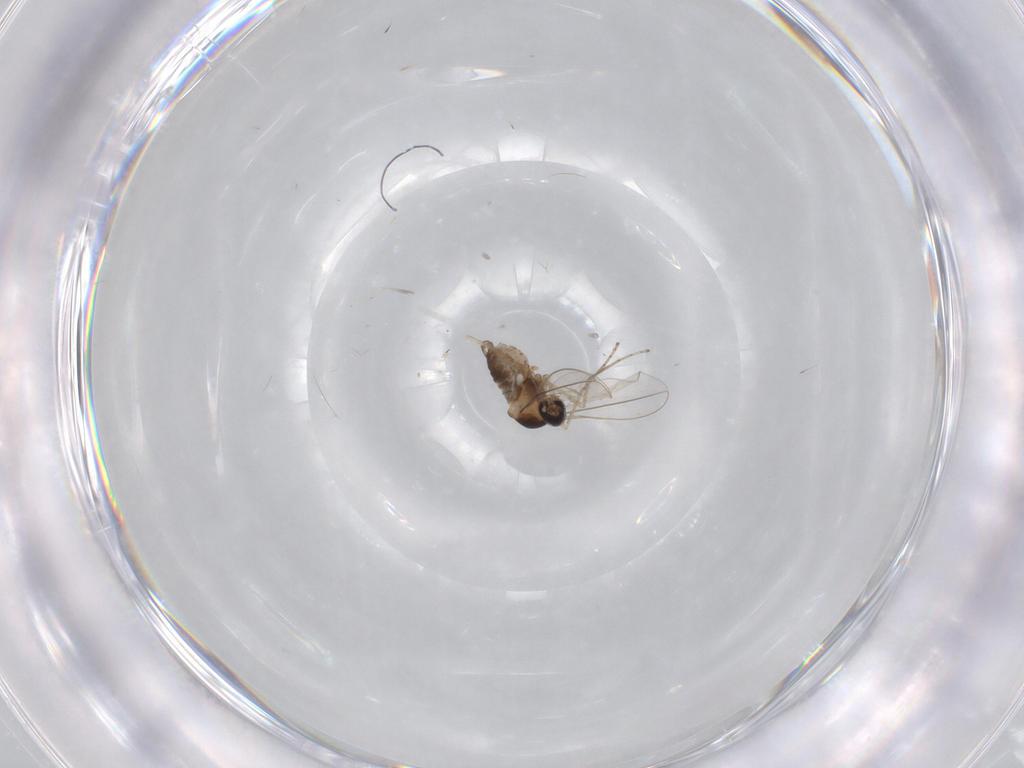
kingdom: Animalia
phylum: Arthropoda
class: Insecta
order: Diptera
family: Cecidomyiidae
